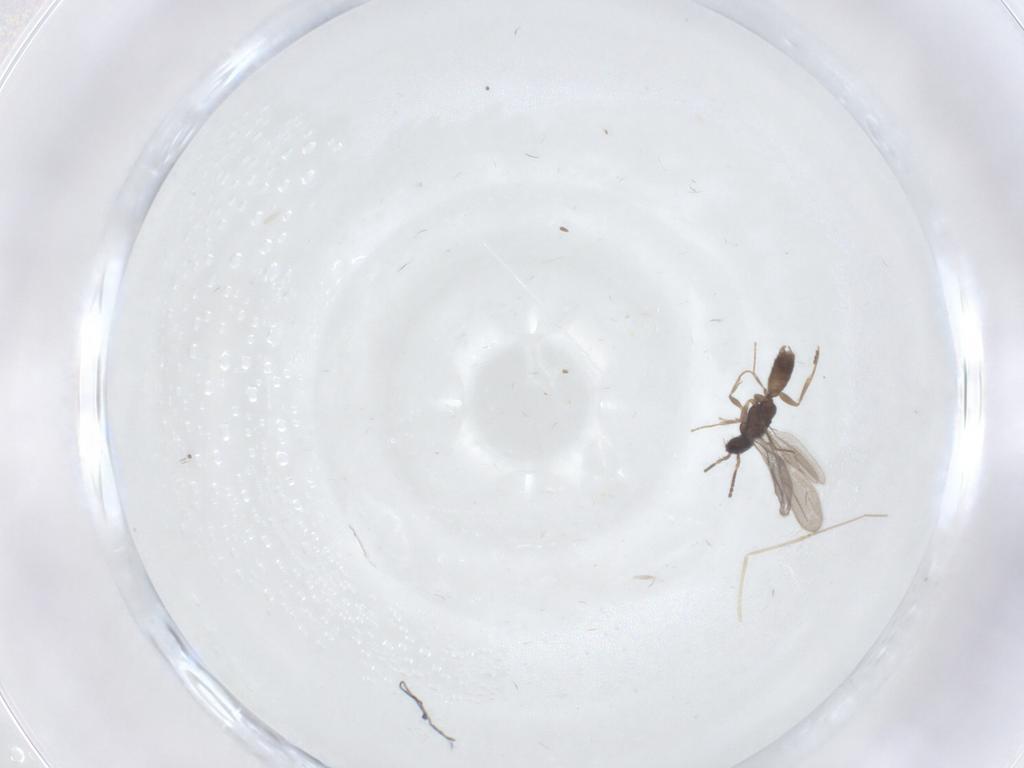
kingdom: Animalia
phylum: Arthropoda
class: Insecta
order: Hymenoptera
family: Bethylidae
